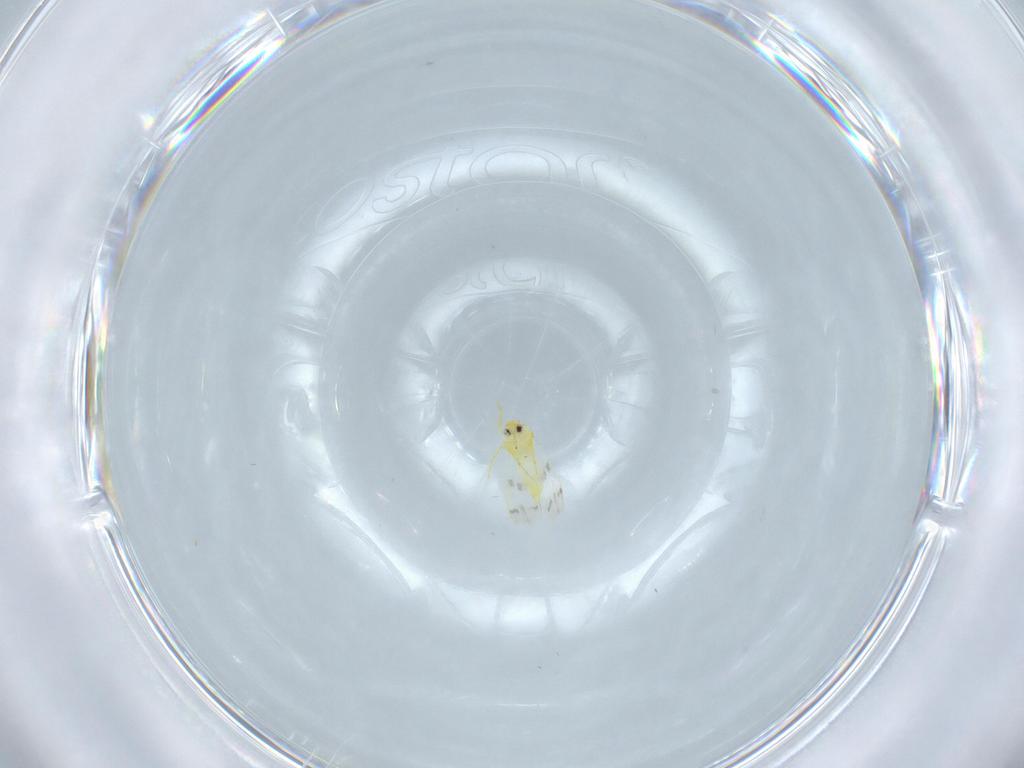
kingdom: Animalia
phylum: Arthropoda
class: Insecta
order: Hemiptera
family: Aleyrodidae
